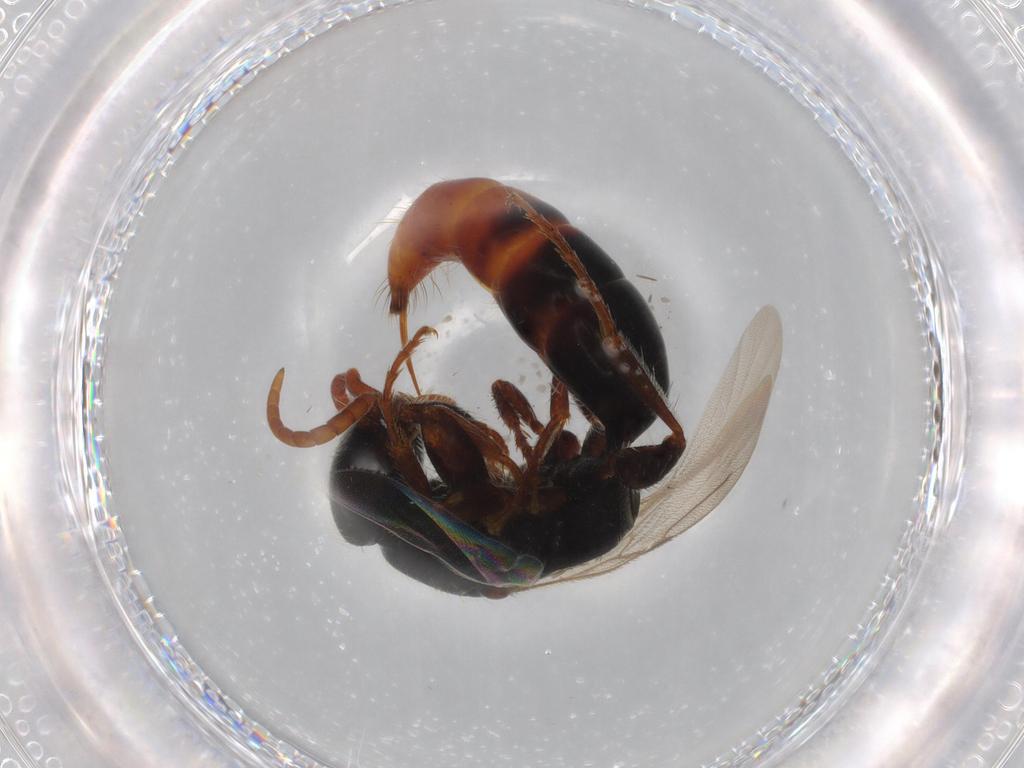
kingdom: Animalia
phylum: Arthropoda
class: Insecta
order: Hymenoptera
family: Bethylidae
